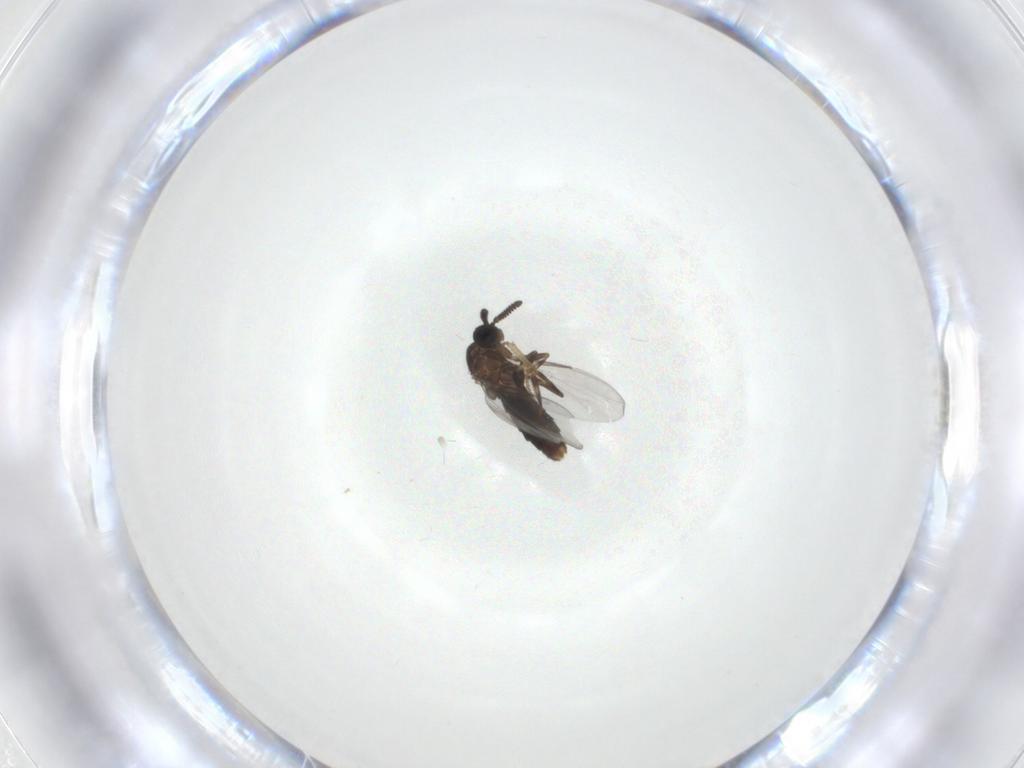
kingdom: Animalia
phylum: Arthropoda
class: Insecta
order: Diptera
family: Scatopsidae
